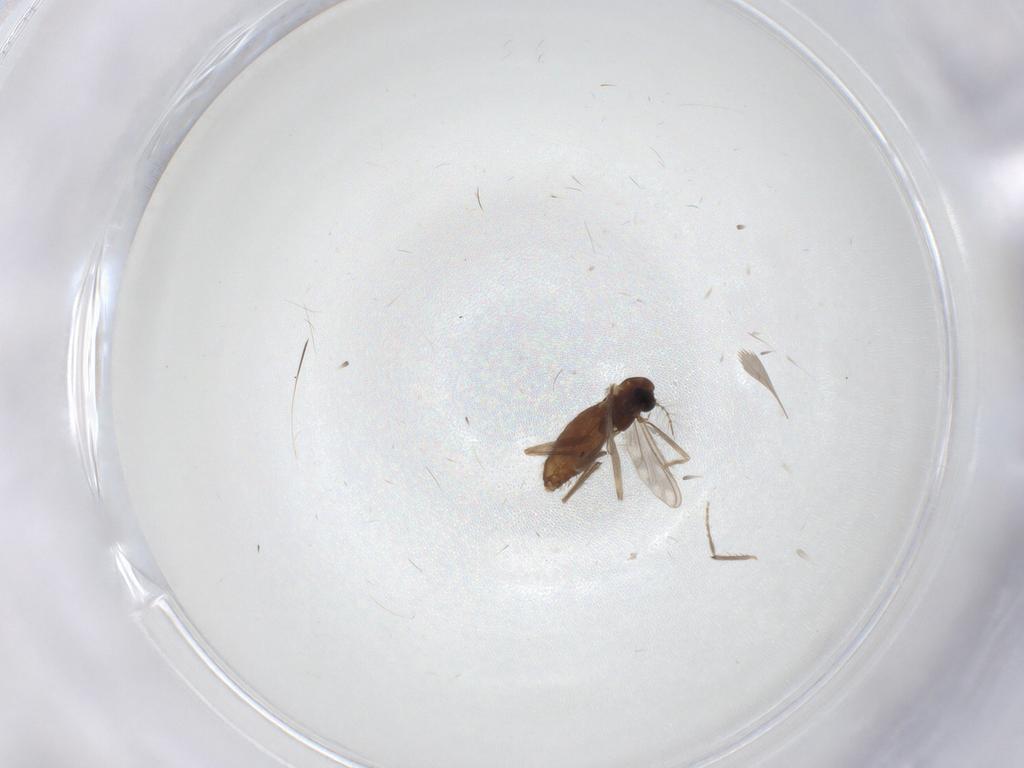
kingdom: Animalia
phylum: Arthropoda
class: Insecta
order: Diptera
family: Chironomidae
